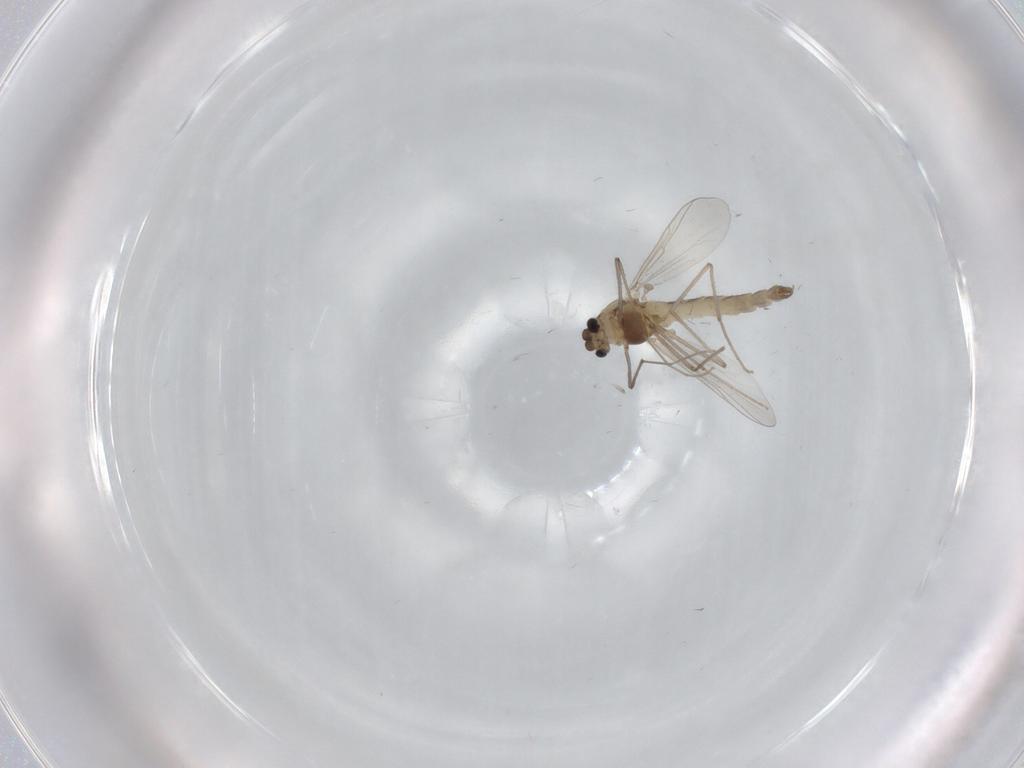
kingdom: Animalia
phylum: Arthropoda
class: Insecta
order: Diptera
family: Chironomidae
